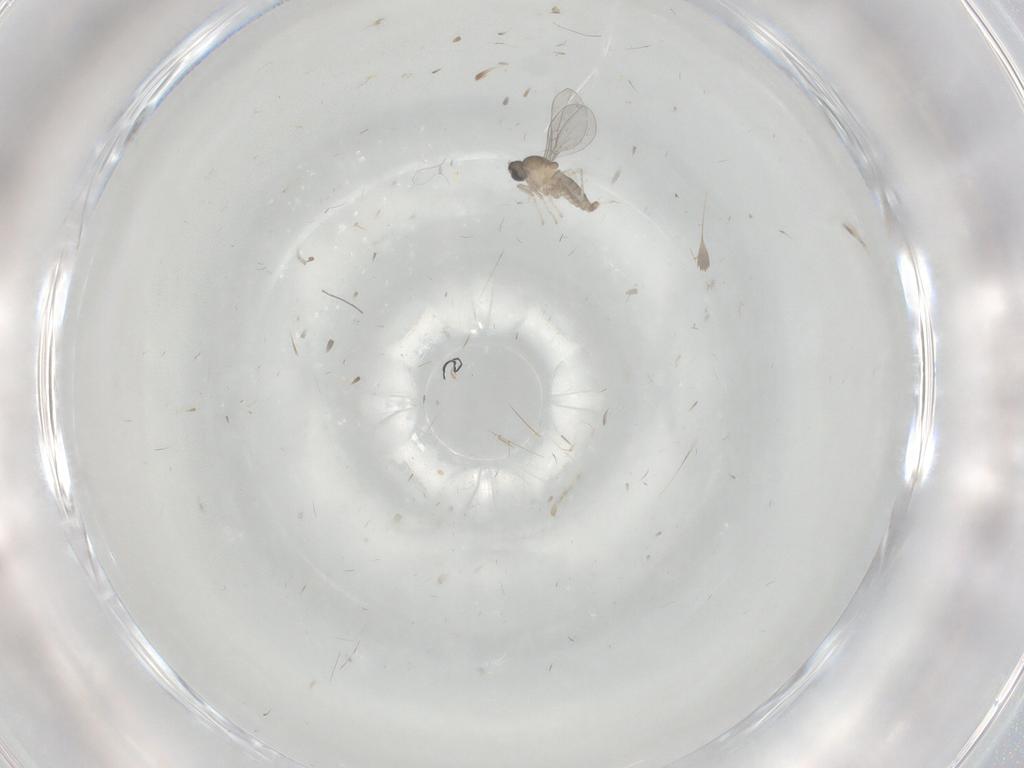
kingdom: Animalia
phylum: Arthropoda
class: Insecta
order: Diptera
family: Cecidomyiidae
